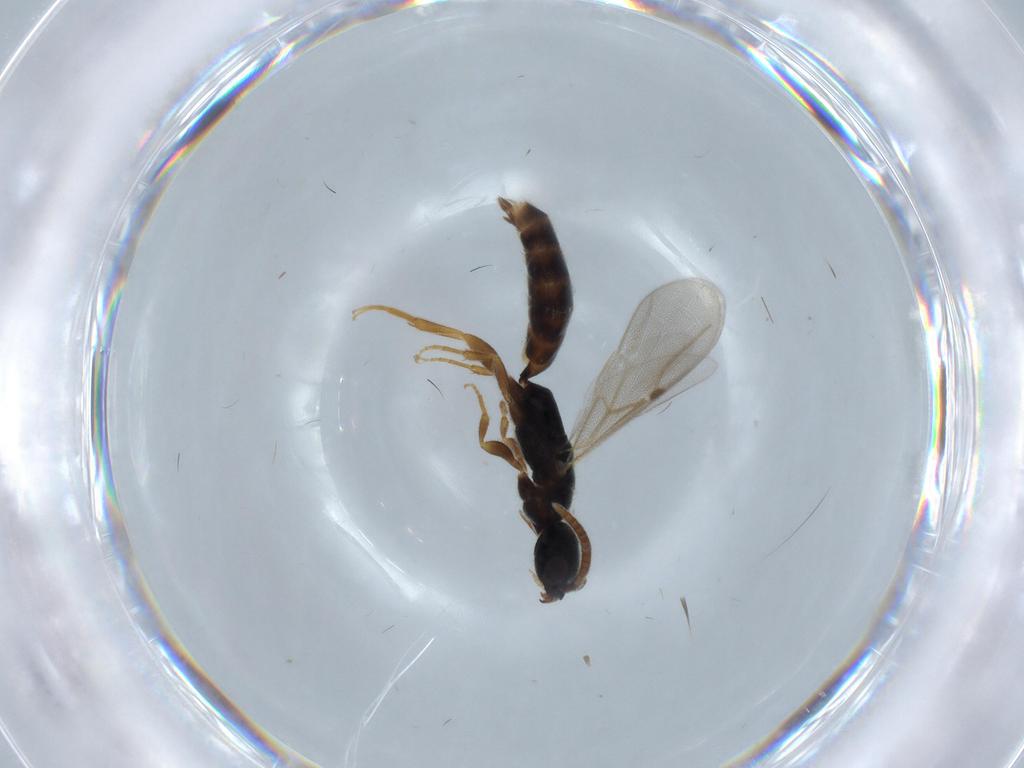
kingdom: Animalia
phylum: Arthropoda
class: Insecta
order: Hymenoptera
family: Bethylidae
